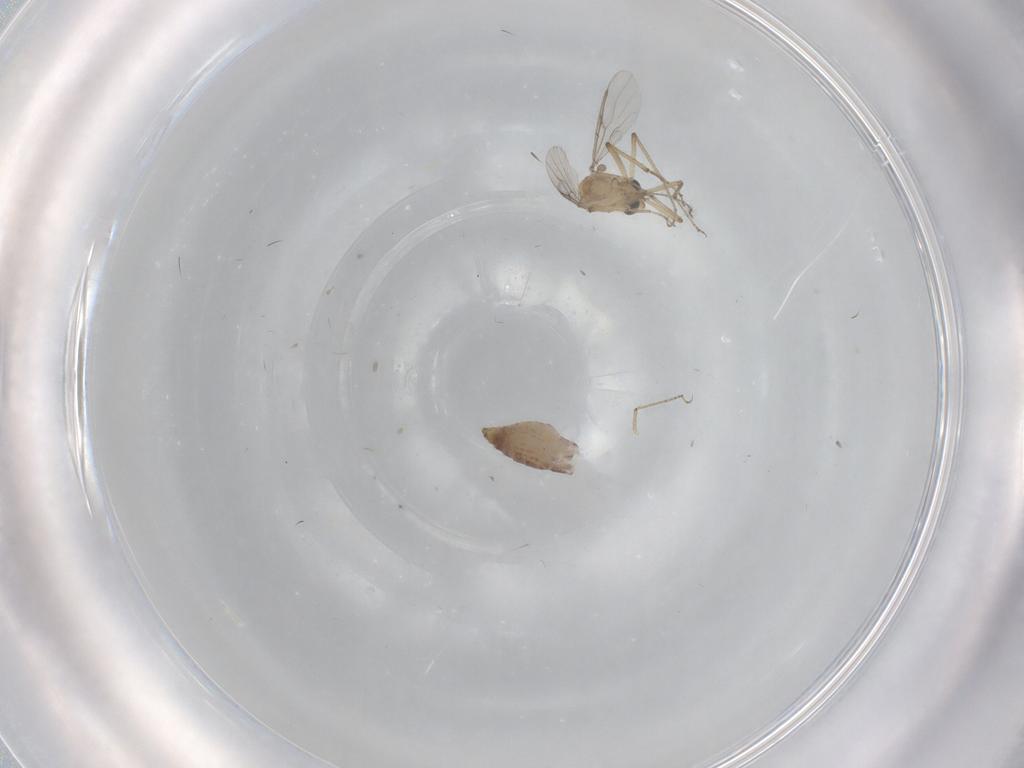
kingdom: Animalia
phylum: Arthropoda
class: Insecta
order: Diptera
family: Ceratopogonidae
